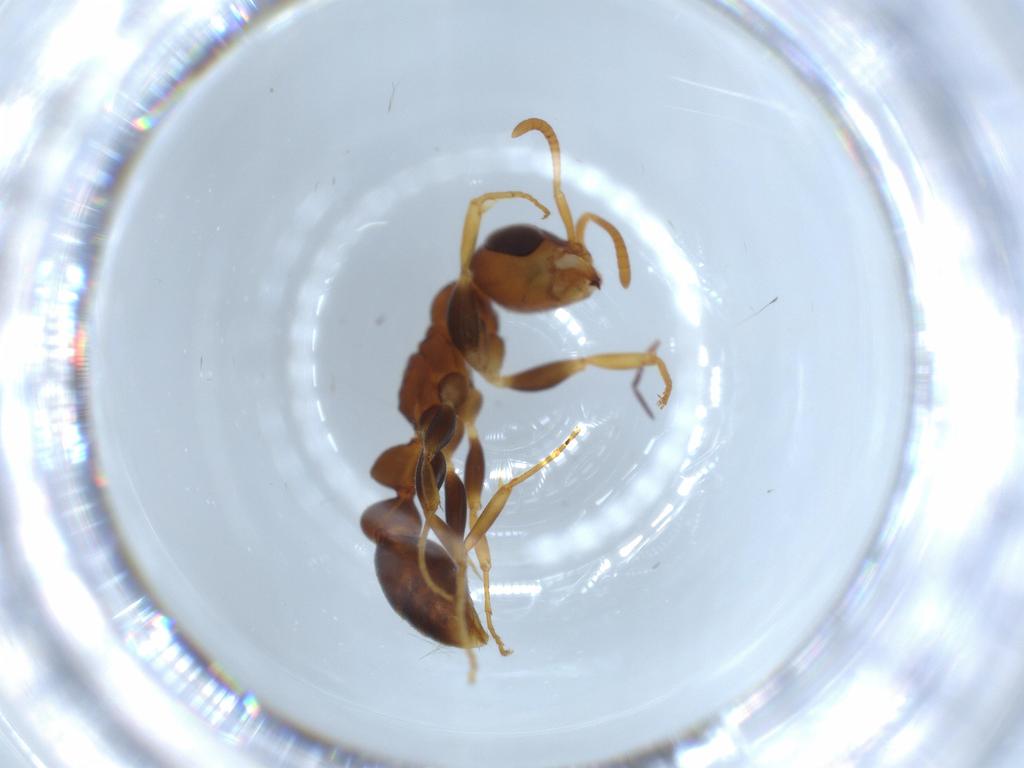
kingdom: Animalia
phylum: Arthropoda
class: Insecta
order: Hymenoptera
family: Formicidae
